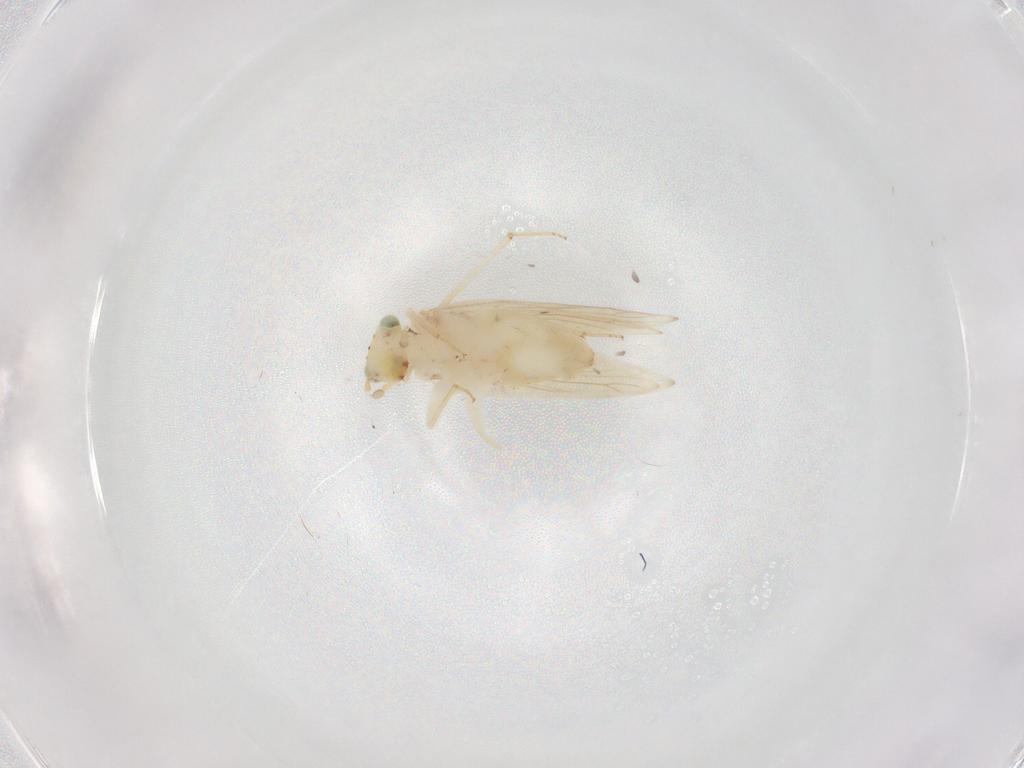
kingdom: Animalia
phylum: Arthropoda
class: Insecta
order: Psocodea
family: Lepidopsocidae
